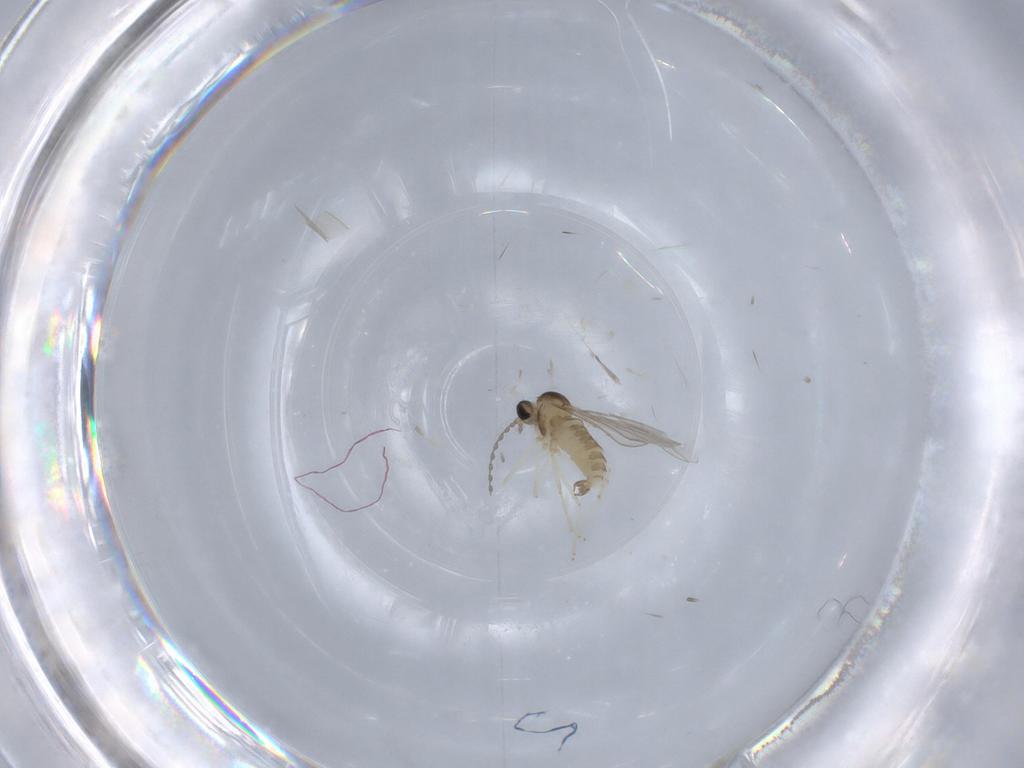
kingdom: Animalia
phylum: Arthropoda
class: Insecta
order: Diptera
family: Cecidomyiidae
